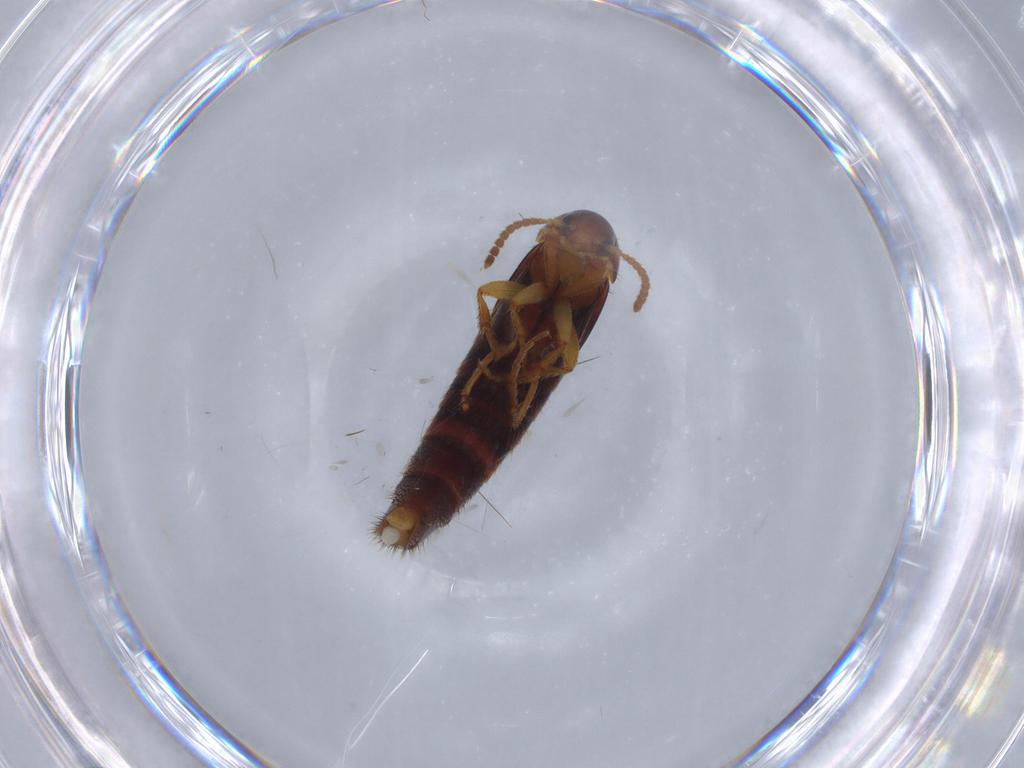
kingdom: Animalia
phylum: Arthropoda
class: Insecta
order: Coleoptera
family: Staphylinidae
